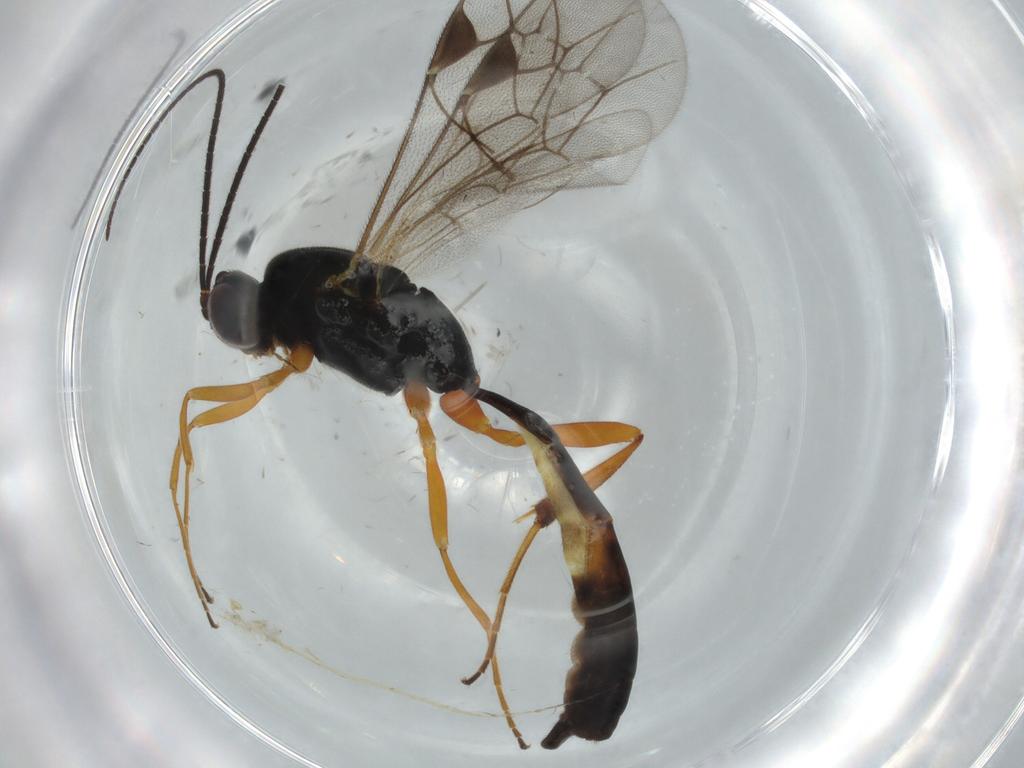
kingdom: Animalia
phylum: Arthropoda
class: Insecta
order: Hymenoptera
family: Ichneumonidae
